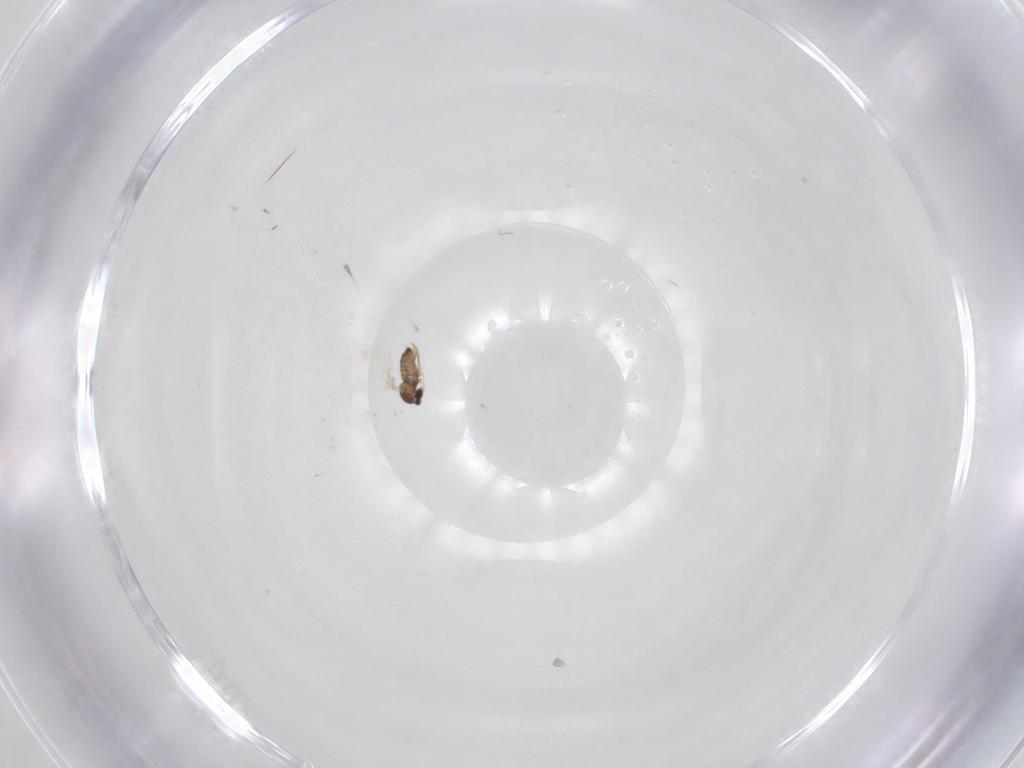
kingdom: Animalia
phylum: Arthropoda
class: Insecta
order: Diptera
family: Cecidomyiidae
